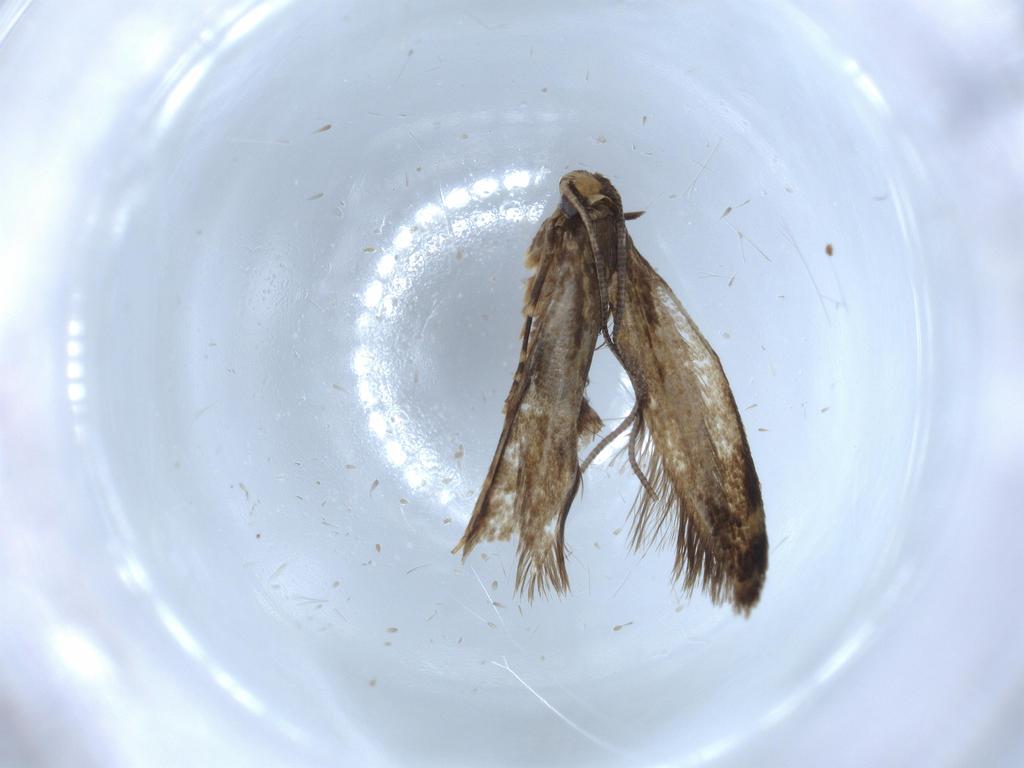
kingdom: Animalia
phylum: Arthropoda
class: Insecta
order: Lepidoptera
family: Tineidae
